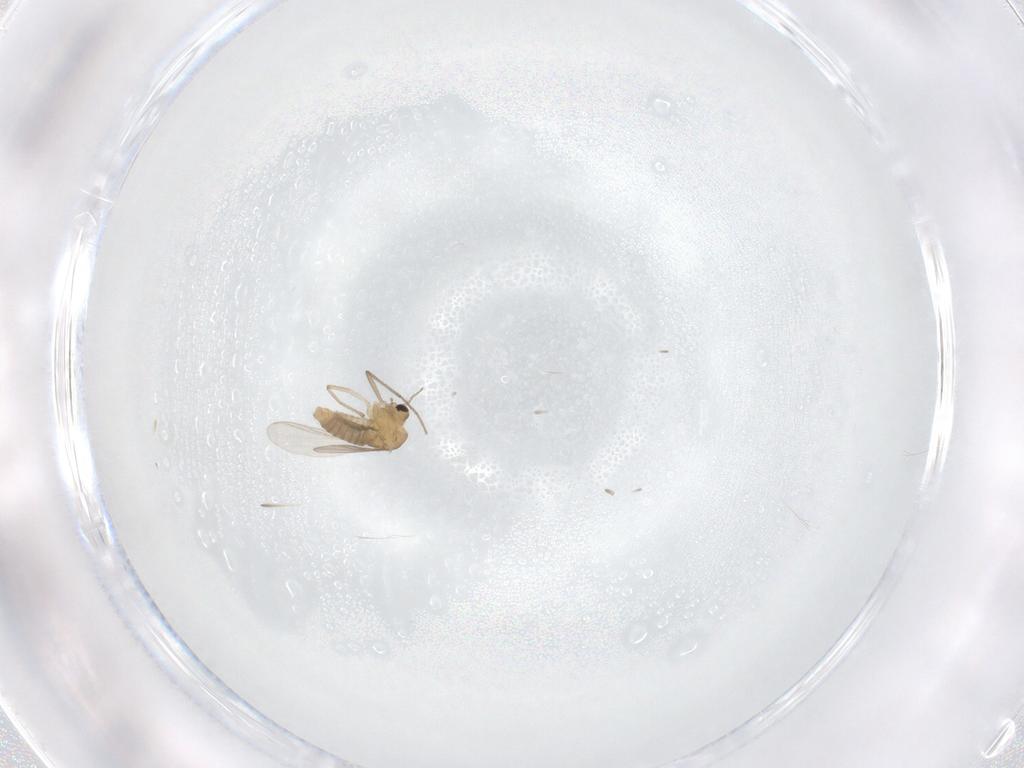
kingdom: Animalia
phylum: Arthropoda
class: Insecta
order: Diptera
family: Chironomidae
